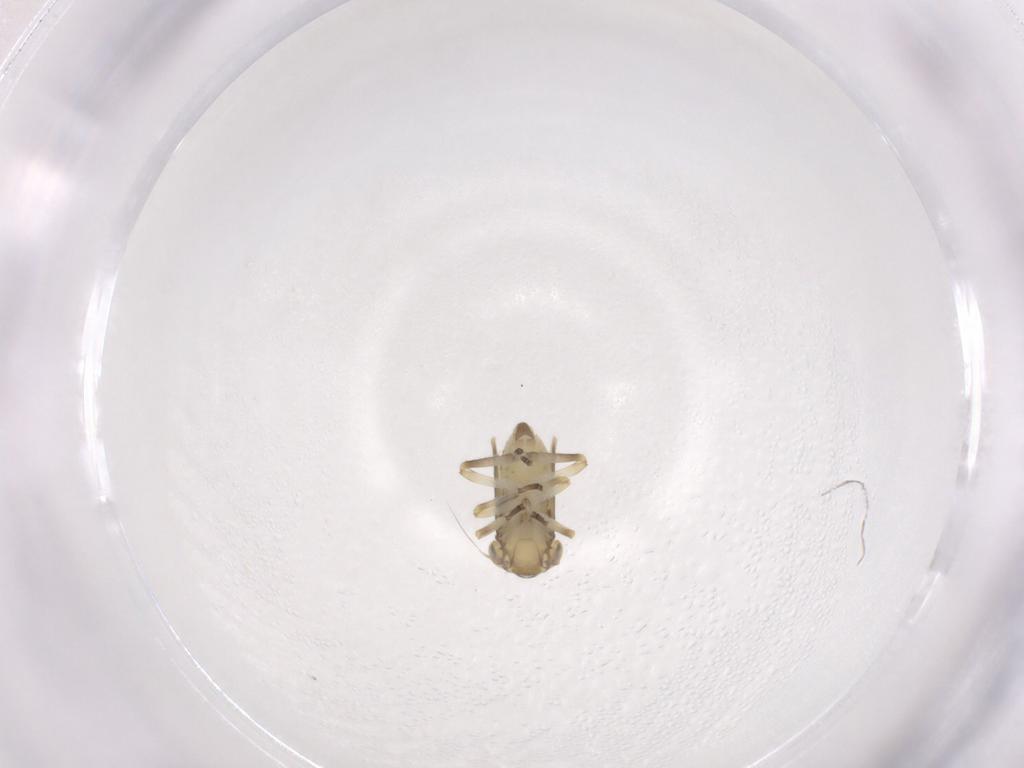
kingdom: Animalia
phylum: Arthropoda
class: Insecta
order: Hemiptera
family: Cicadellidae
